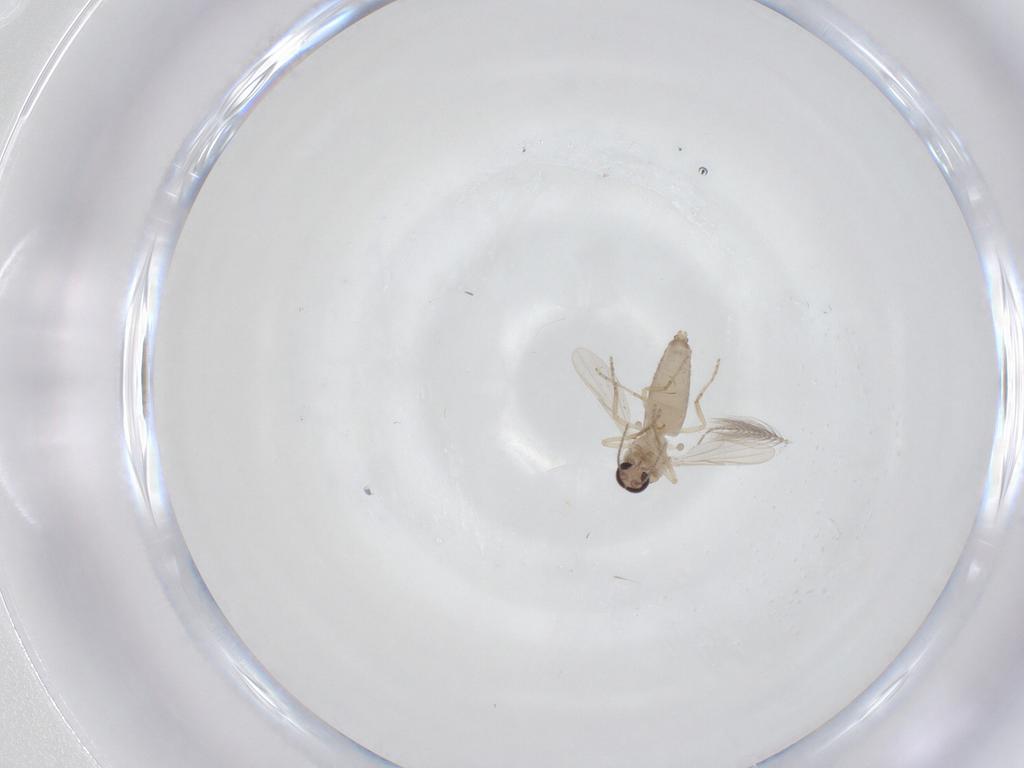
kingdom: Animalia
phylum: Arthropoda
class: Insecta
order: Diptera
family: Ceratopogonidae
